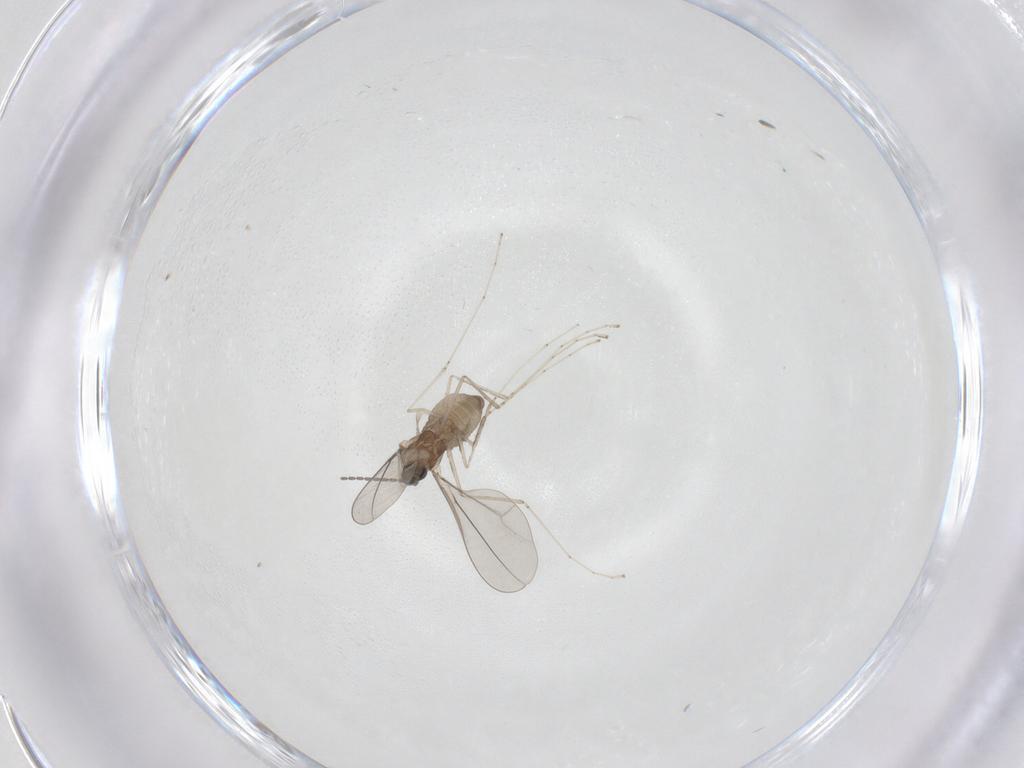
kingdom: Animalia
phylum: Arthropoda
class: Insecta
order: Diptera
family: Cecidomyiidae
